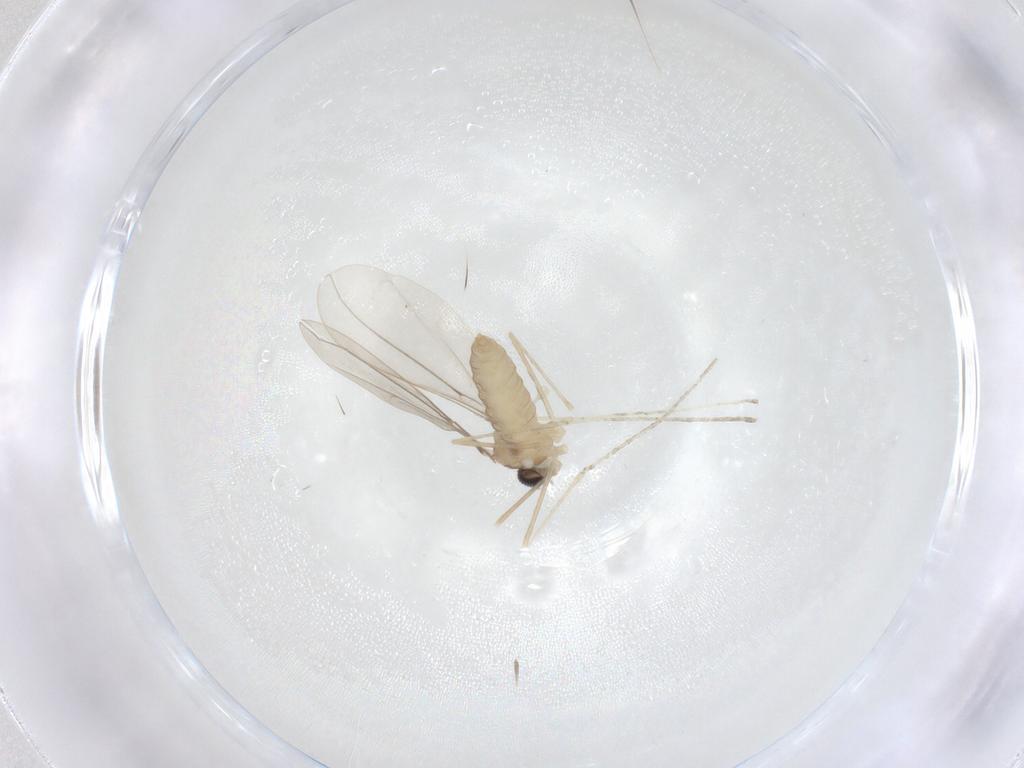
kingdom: Animalia
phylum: Arthropoda
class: Insecta
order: Diptera
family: Cecidomyiidae
